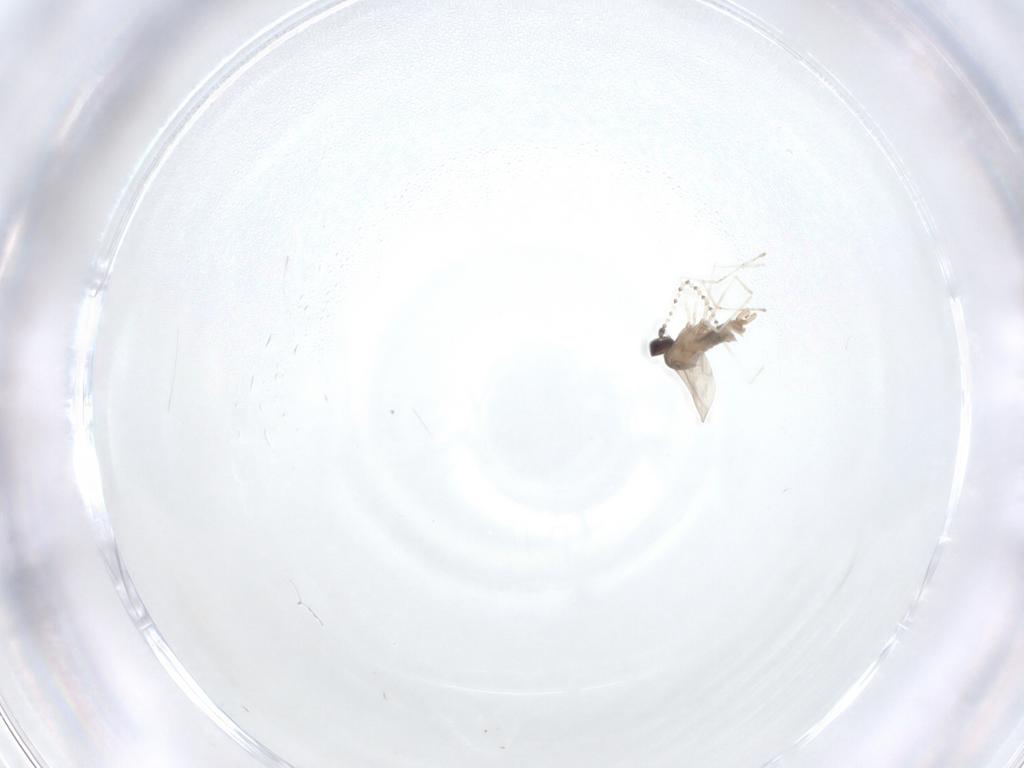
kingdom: Animalia
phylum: Arthropoda
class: Insecta
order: Diptera
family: Cecidomyiidae
